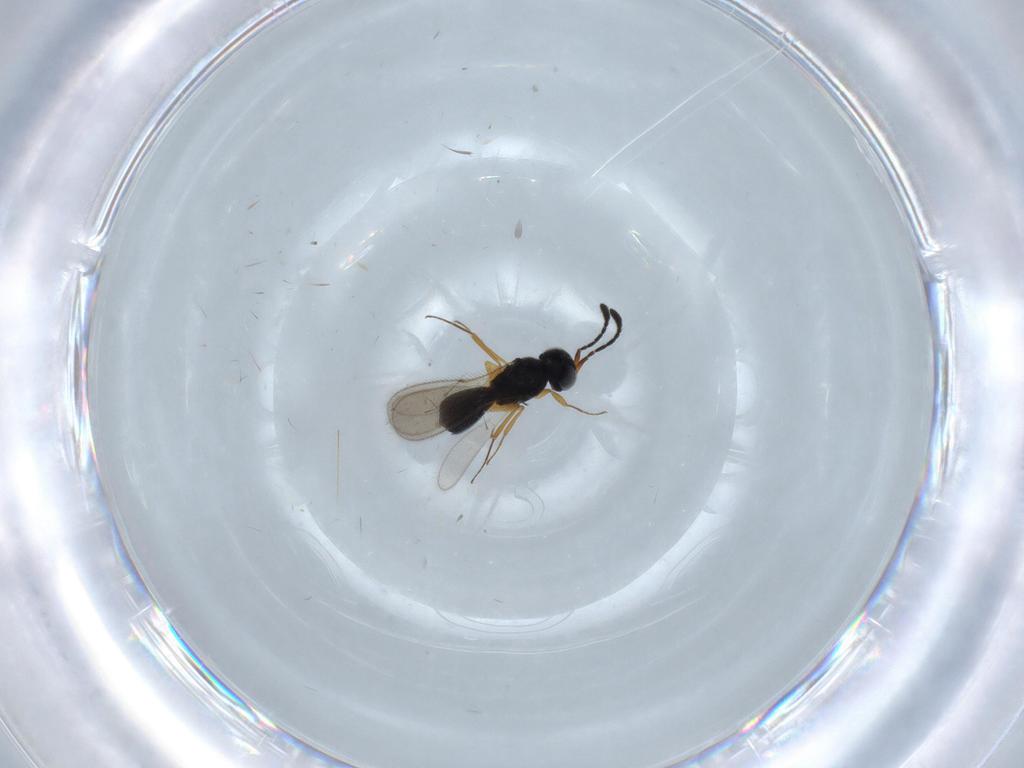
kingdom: Animalia
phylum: Arthropoda
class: Insecta
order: Hymenoptera
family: Scelionidae
